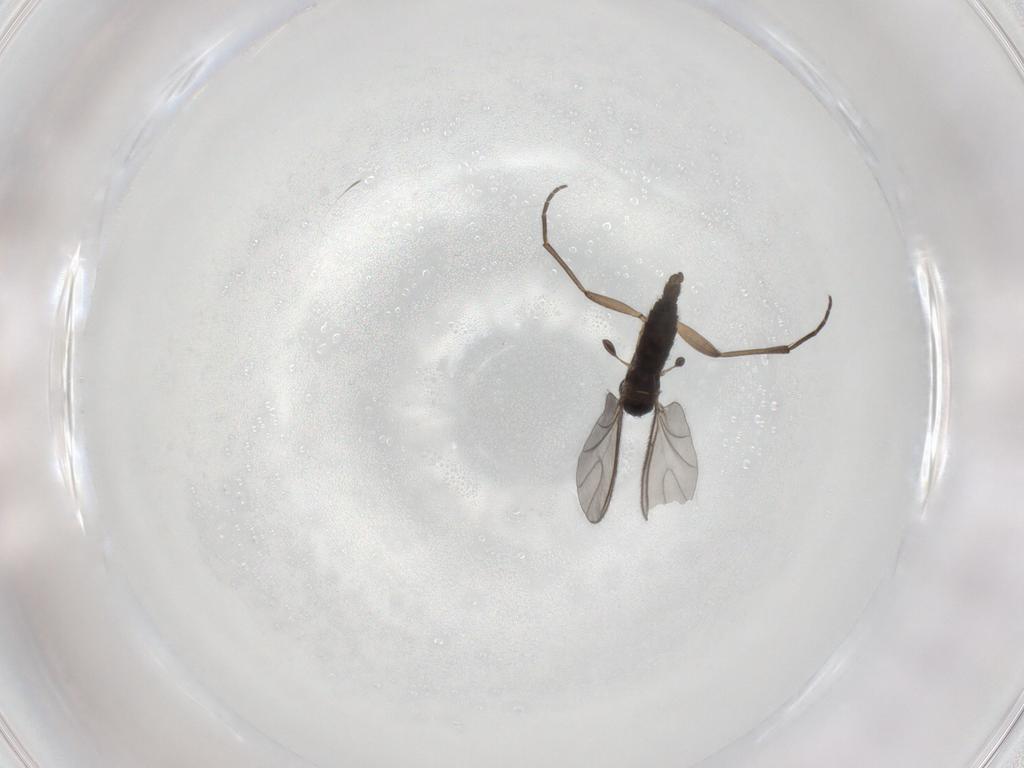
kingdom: Animalia
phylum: Arthropoda
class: Insecta
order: Diptera
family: Sciaridae
